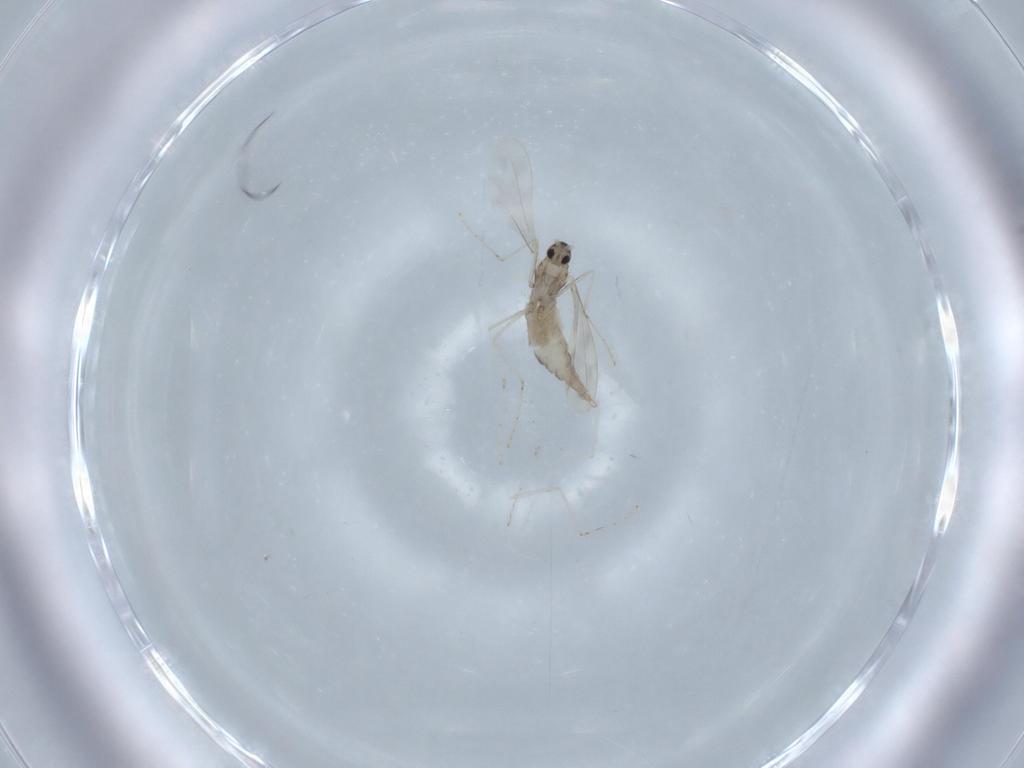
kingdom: Animalia
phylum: Arthropoda
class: Insecta
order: Diptera
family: Cecidomyiidae
